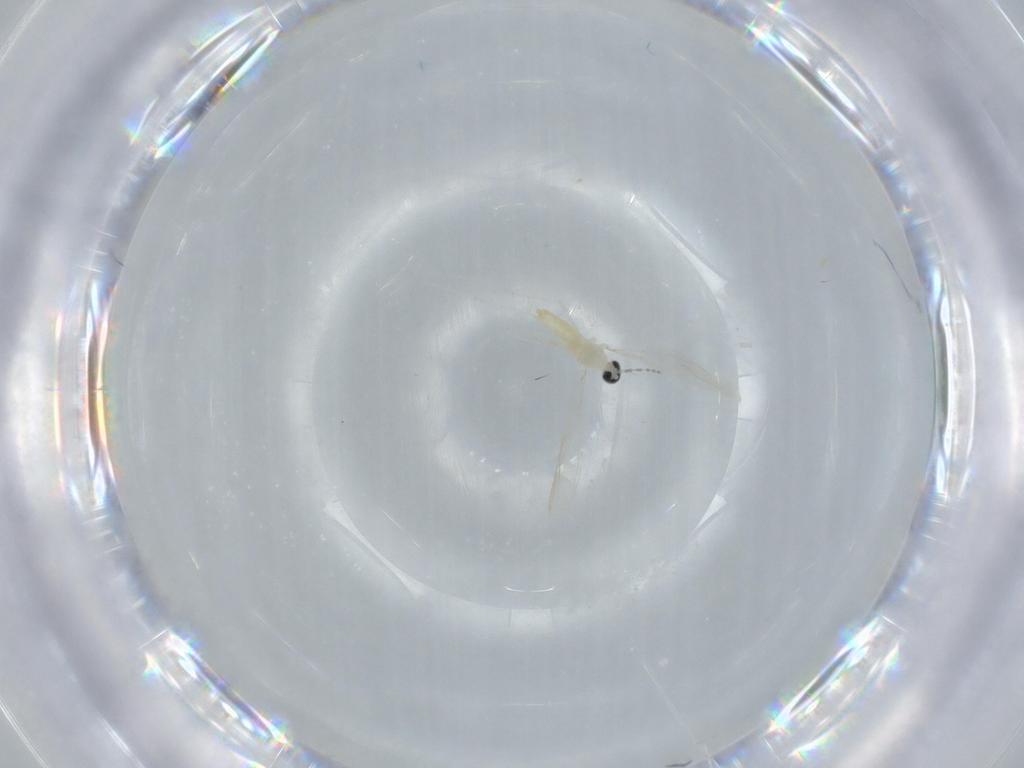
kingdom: Animalia
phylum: Arthropoda
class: Insecta
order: Diptera
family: Cecidomyiidae
